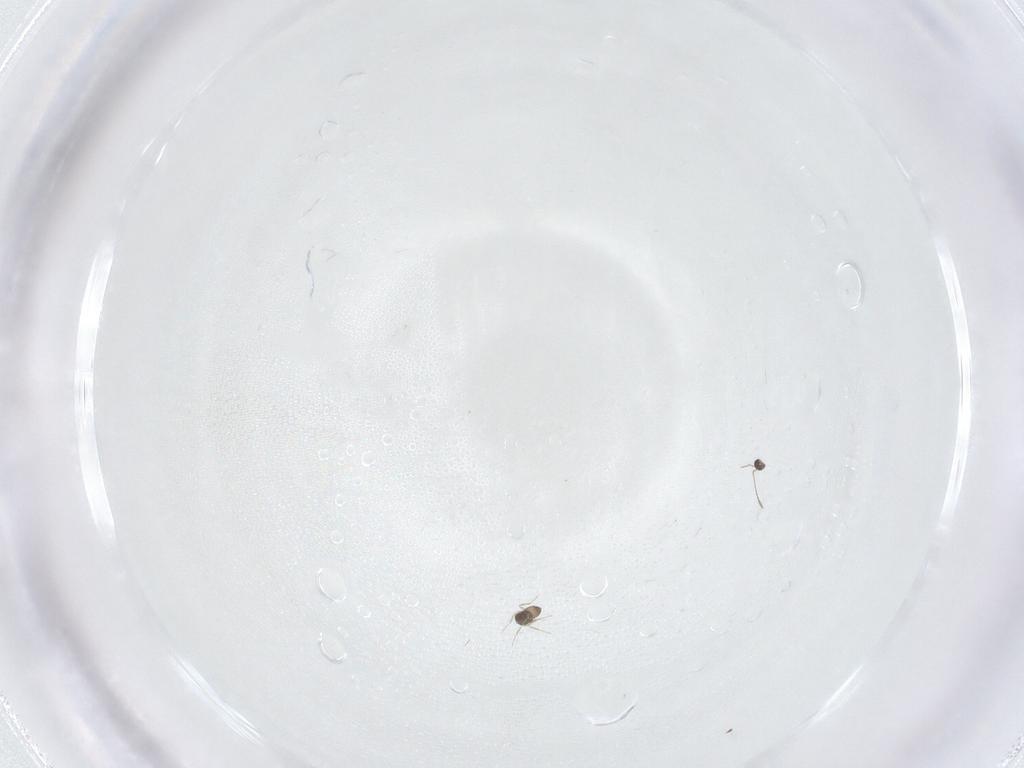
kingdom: Animalia
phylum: Arthropoda
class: Insecta
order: Hymenoptera
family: Mymaridae
